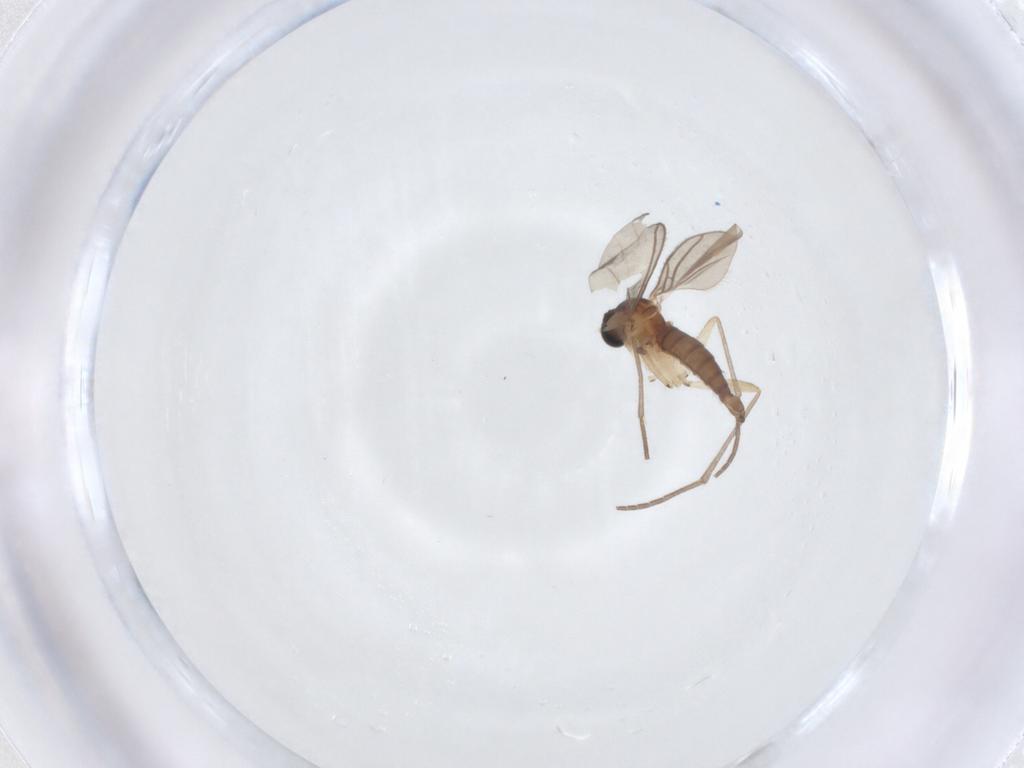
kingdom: Animalia
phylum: Arthropoda
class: Insecta
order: Diptera
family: Sciaridae
